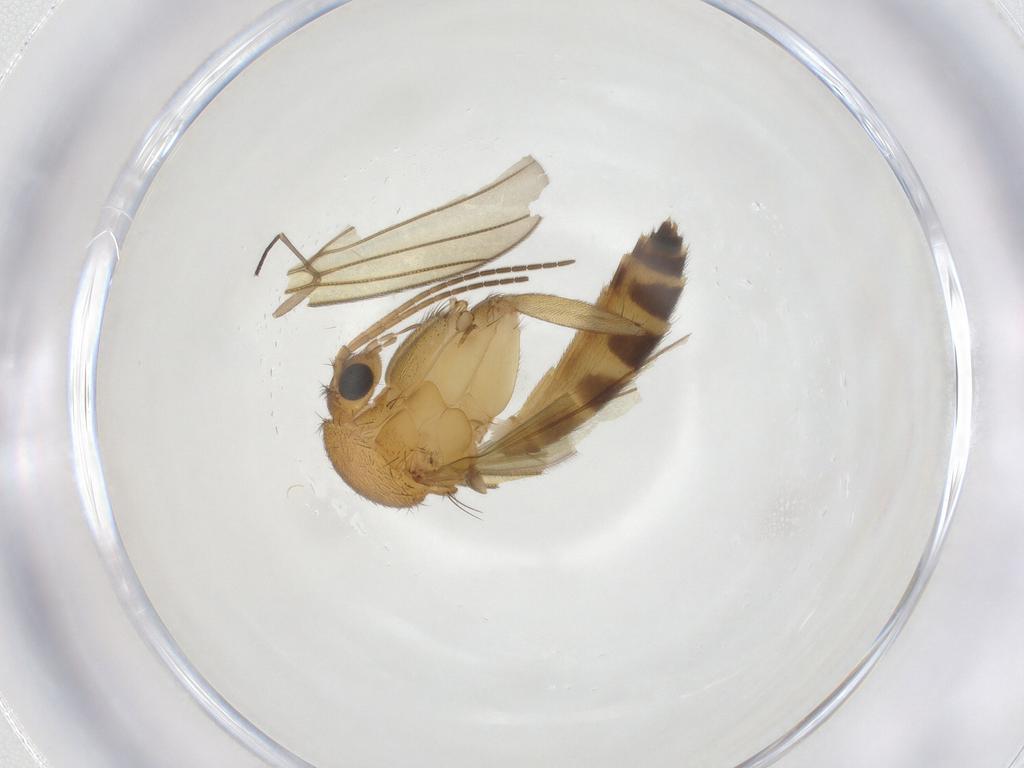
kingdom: Animalia
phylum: Arthropoda
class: Insecta
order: Diptera
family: Mycetophilidae
